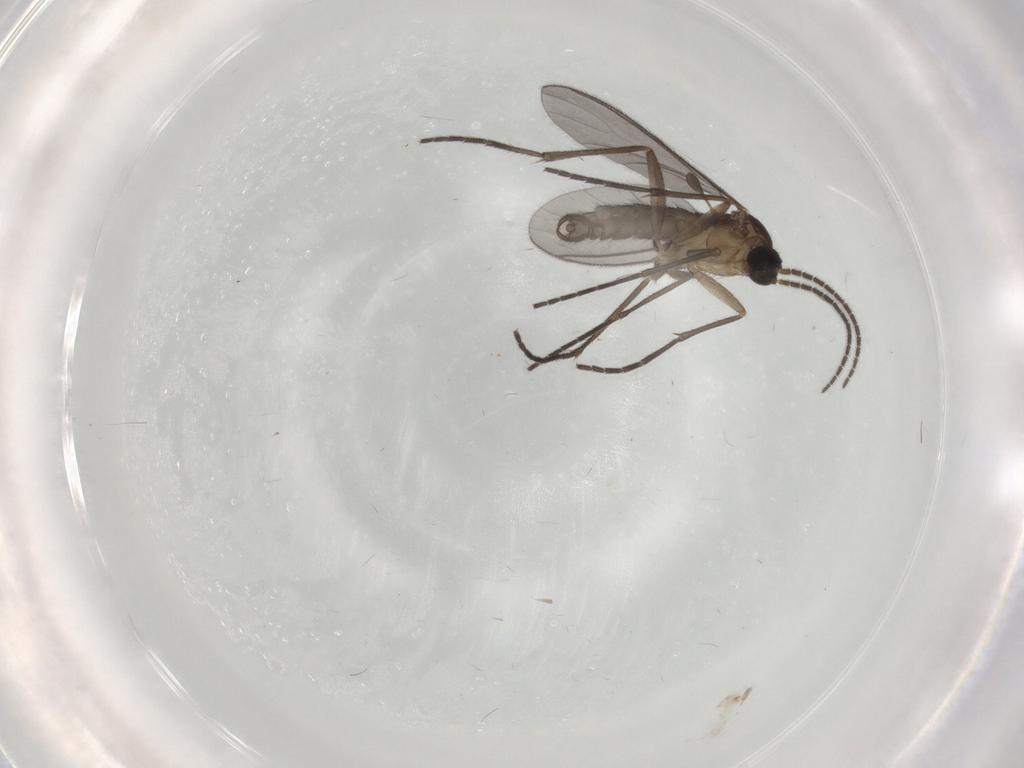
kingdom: Animalia
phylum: Arthropoda
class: Insecta
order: Diptera
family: Sciaridae
